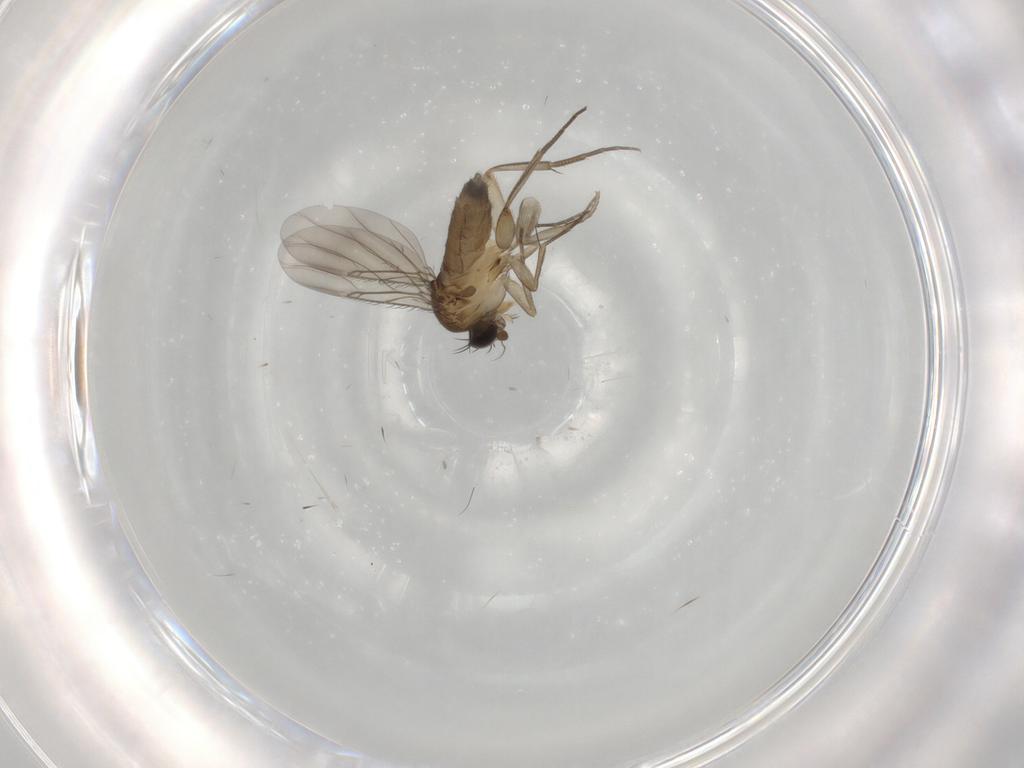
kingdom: Animalia
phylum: Arthropoda
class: Insecta
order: Diptera
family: Phoridae
